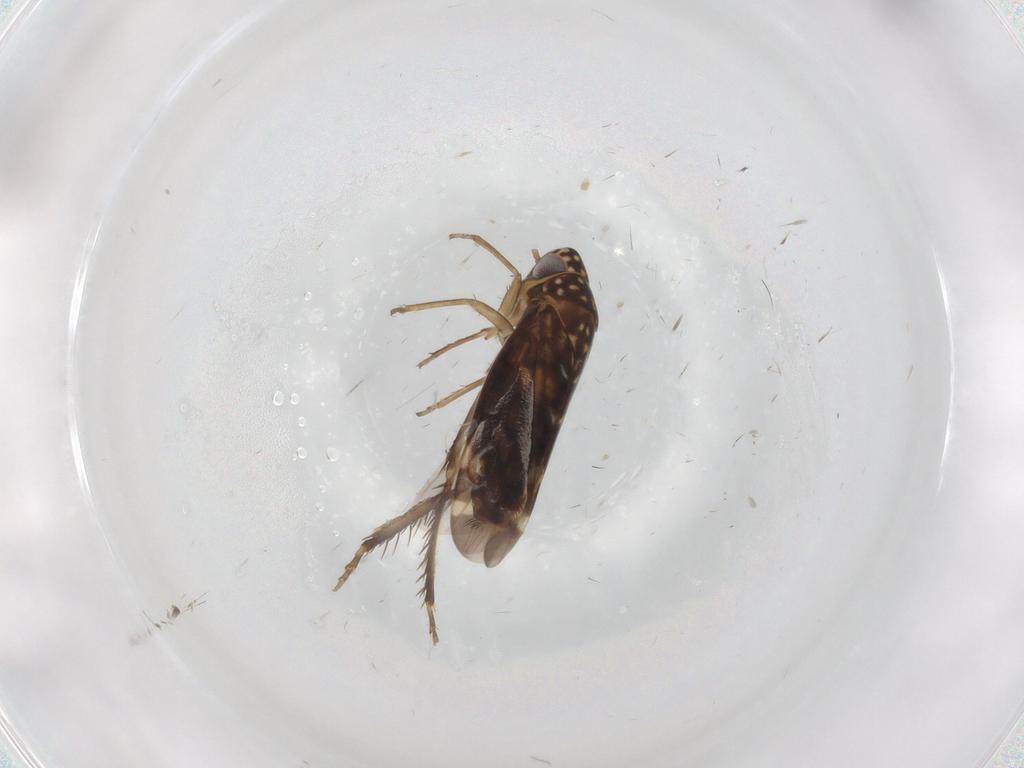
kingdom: Animalia
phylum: Arthropoda
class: Insecta
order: Hemiptera
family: Cicadellidae
